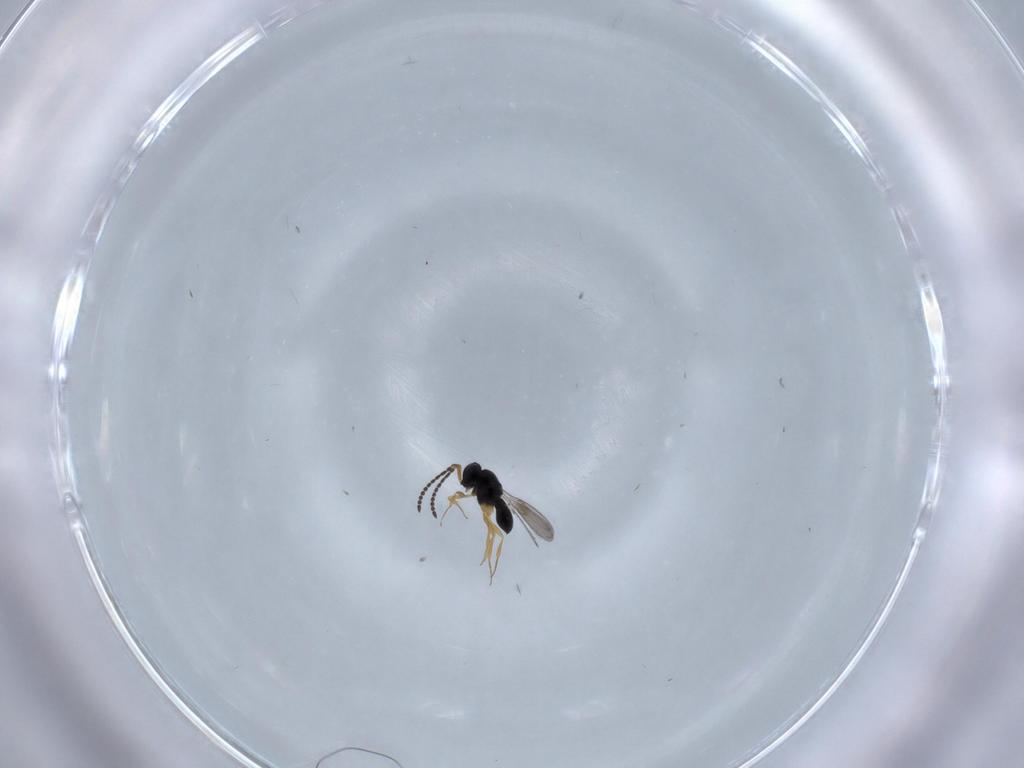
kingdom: Animalia
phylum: Arthropoda
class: Insecta
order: Hymenoptera
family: Scelionidae
